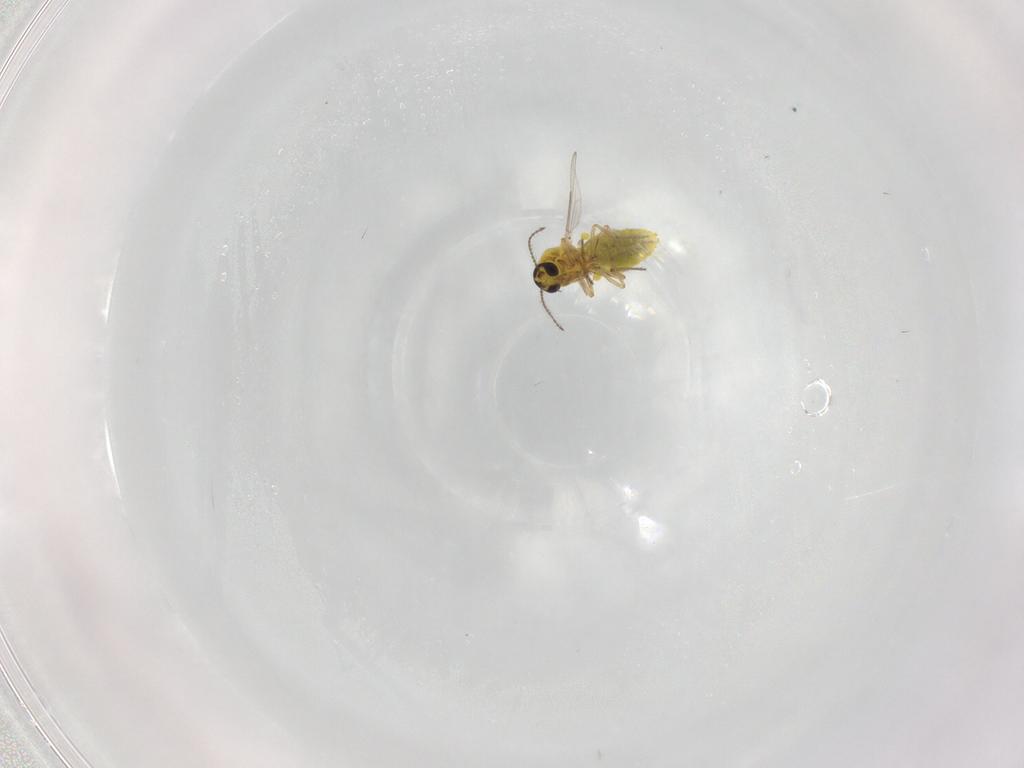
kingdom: Animalia
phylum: Arthropoda
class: Insecta
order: Diptera
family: Ceratopogonidae
